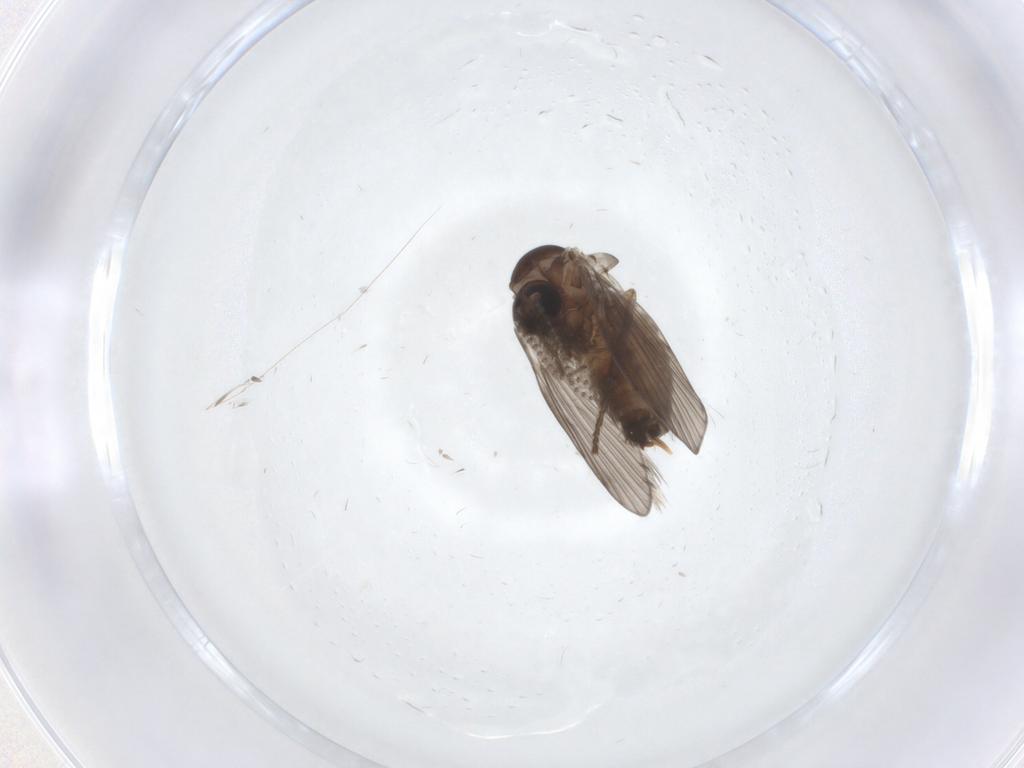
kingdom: Animalia
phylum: Arthropoda
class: Insecta
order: Diptera
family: Psychodidae
